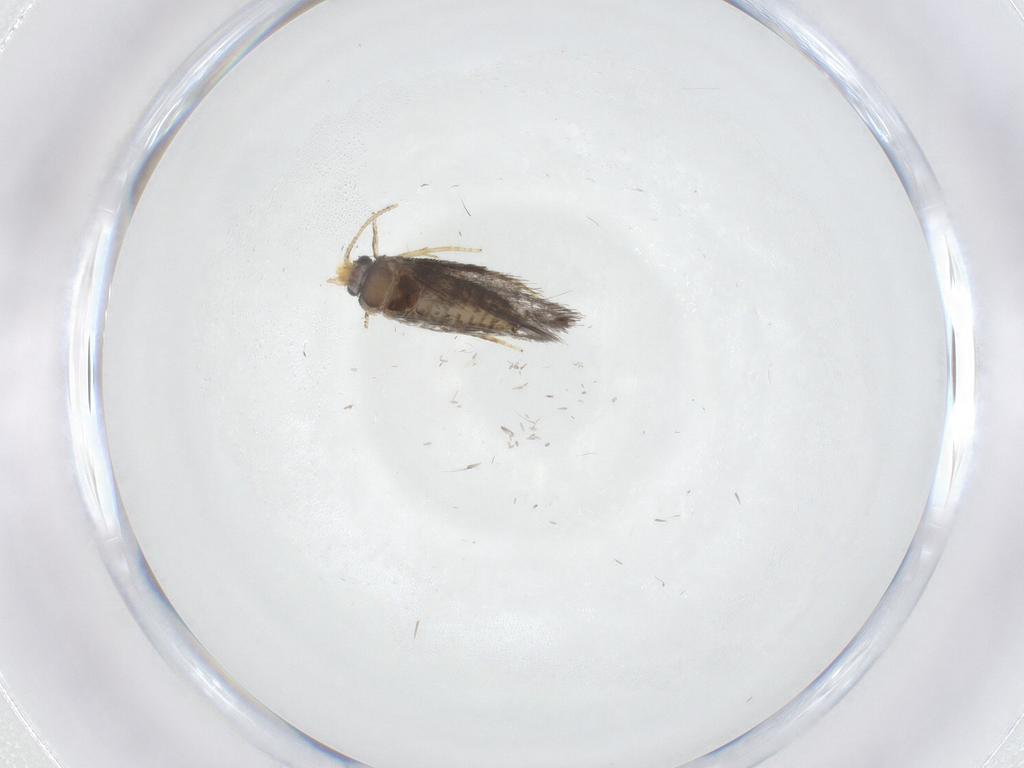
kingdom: Animalia
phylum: Arthropoda
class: Insecta
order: Lepidoptera
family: Nepticulidae
